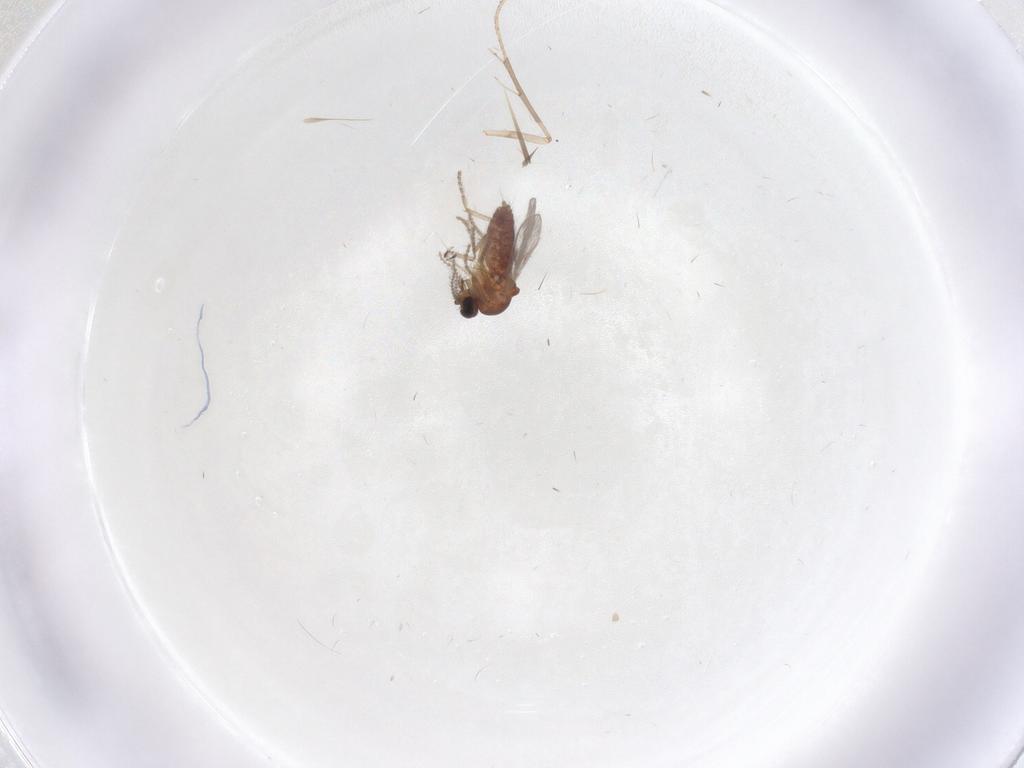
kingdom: Animalia
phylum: Arthropoda
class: Insecta
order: Diptera
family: Ceratopogonidae
